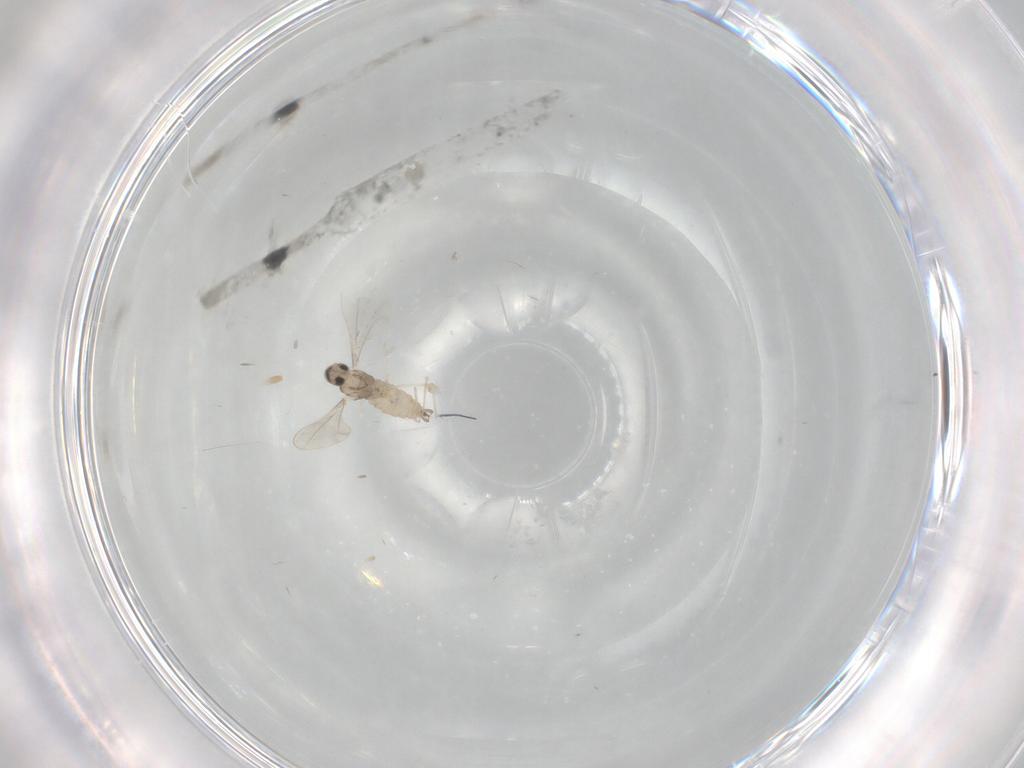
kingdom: Animalia
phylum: Arthropoda
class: Insecta
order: Diptera
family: Cecidomyiidae
